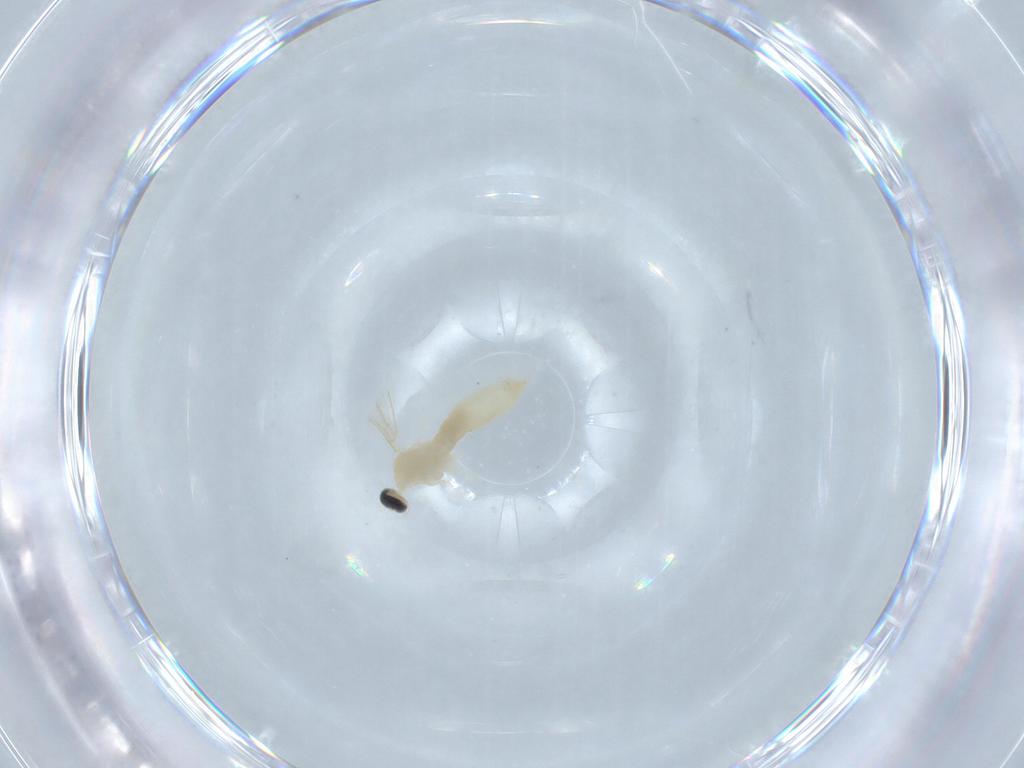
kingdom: Animalia
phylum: Arthropoda
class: Insecta
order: Diptera
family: Cecidomyiidae
